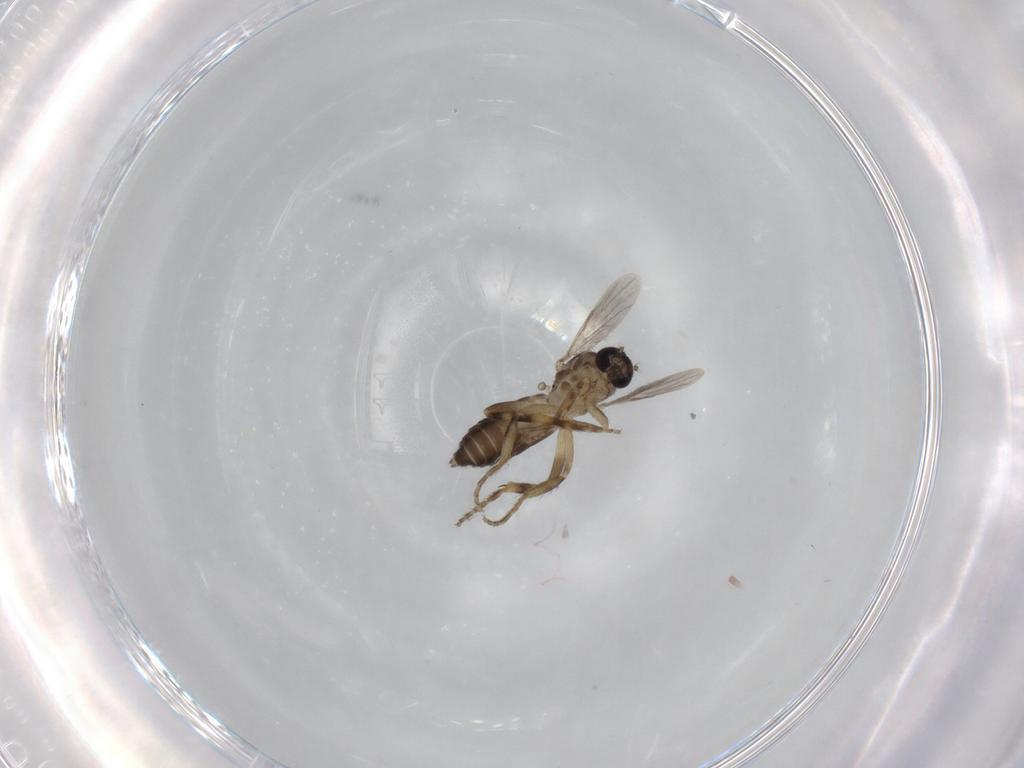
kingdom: Animalia
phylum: Arthropoda
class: Insecta
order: Diptera
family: Ceratopogonidae
